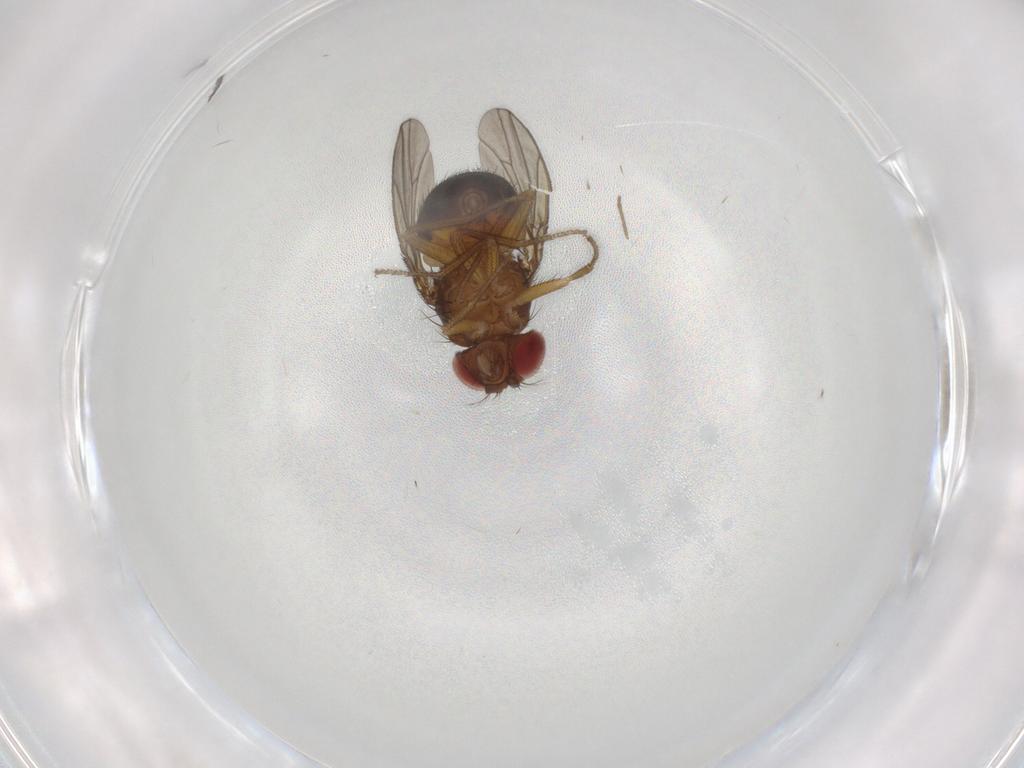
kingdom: Animalia
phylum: Arthropoda
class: Insecta
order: Diptera
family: Drosophilidae
